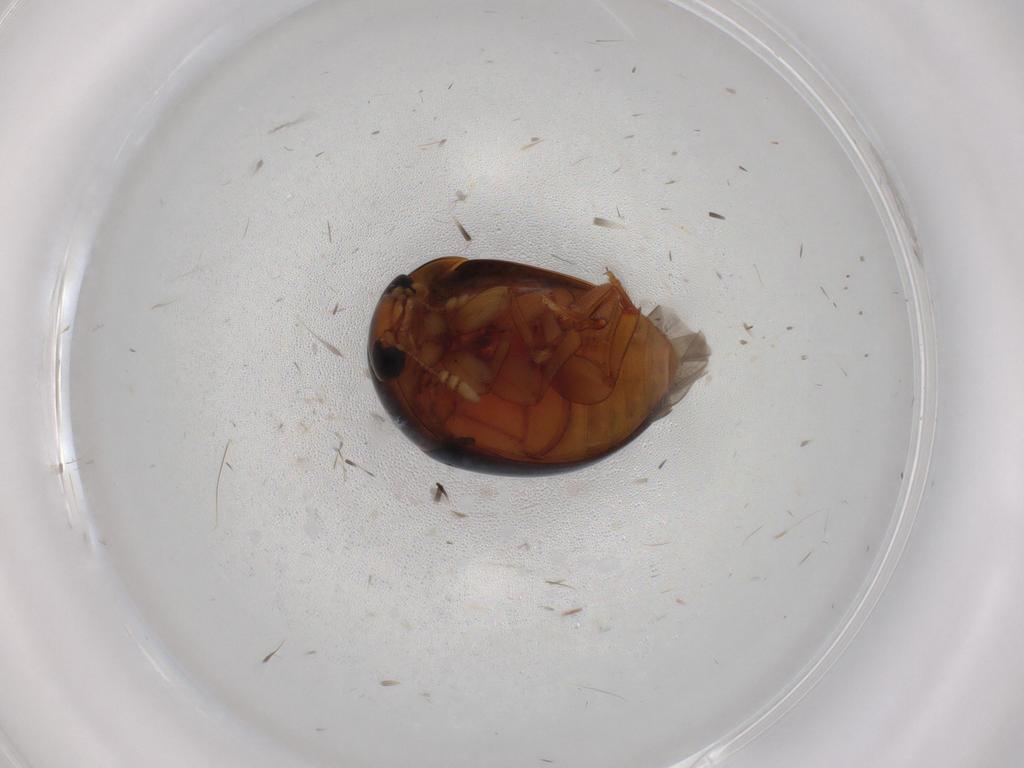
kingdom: Animalia
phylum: Arthropoda
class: Insecta
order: Coleoptera
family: Phalacridae
